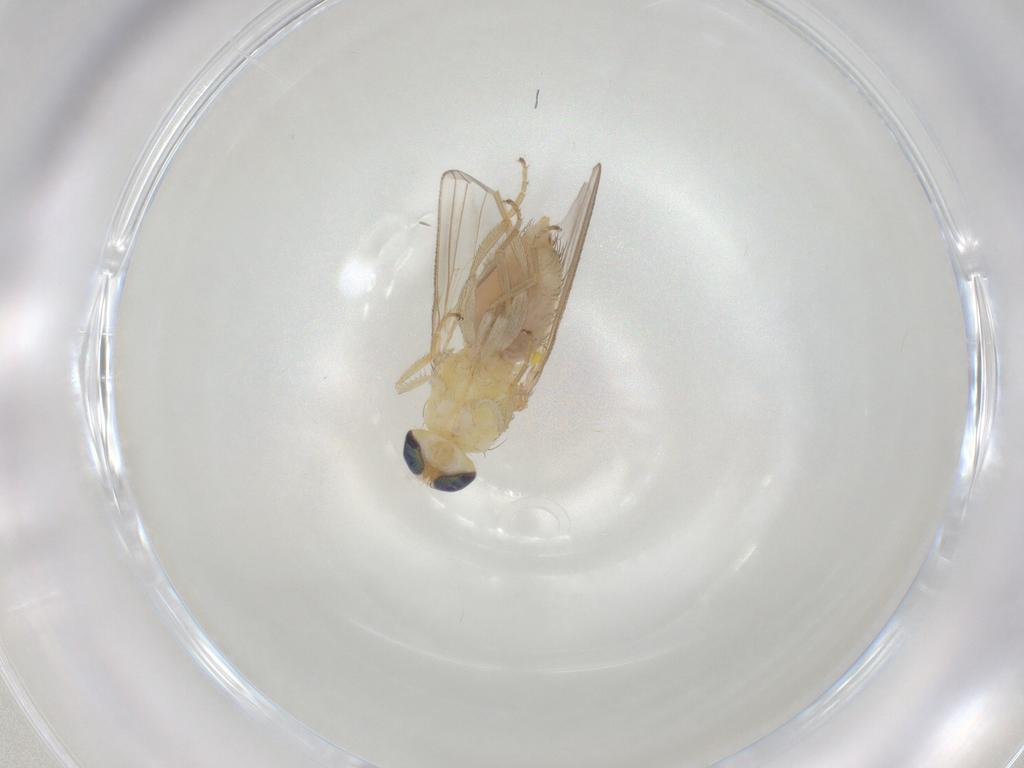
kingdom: Animalia
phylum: Arthropoda
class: Insecta
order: Diptera
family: Chyromyidae
